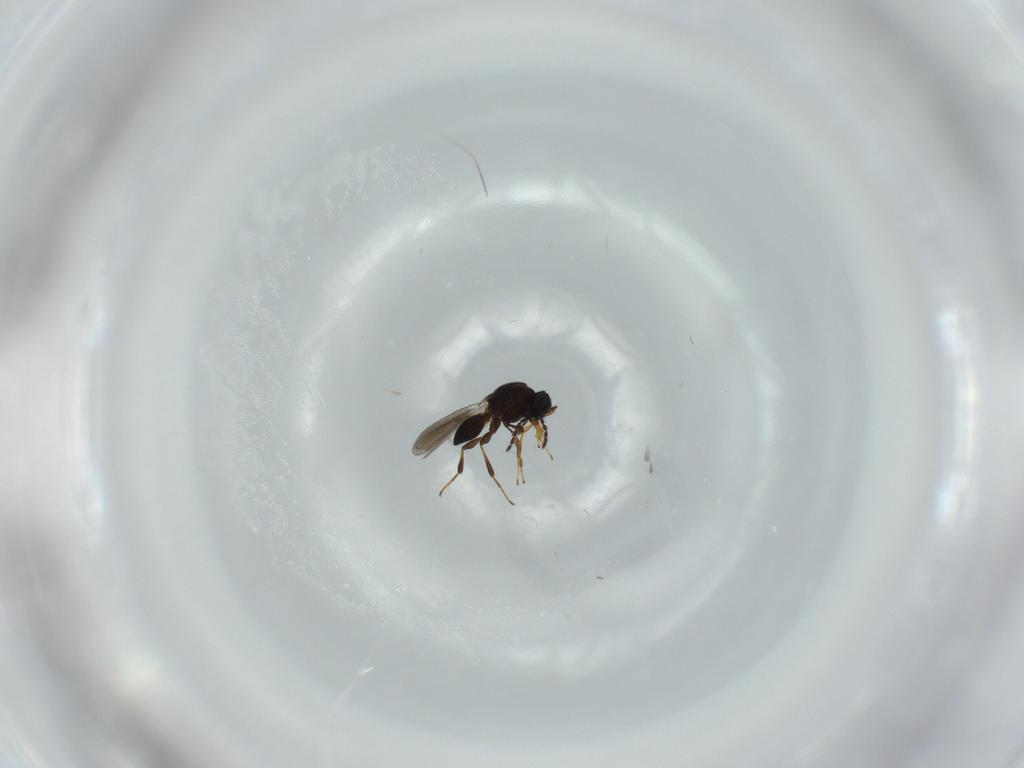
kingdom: Animalia
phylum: Arthropoda
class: Insecta
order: Hymenoptera
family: Platygastridae
